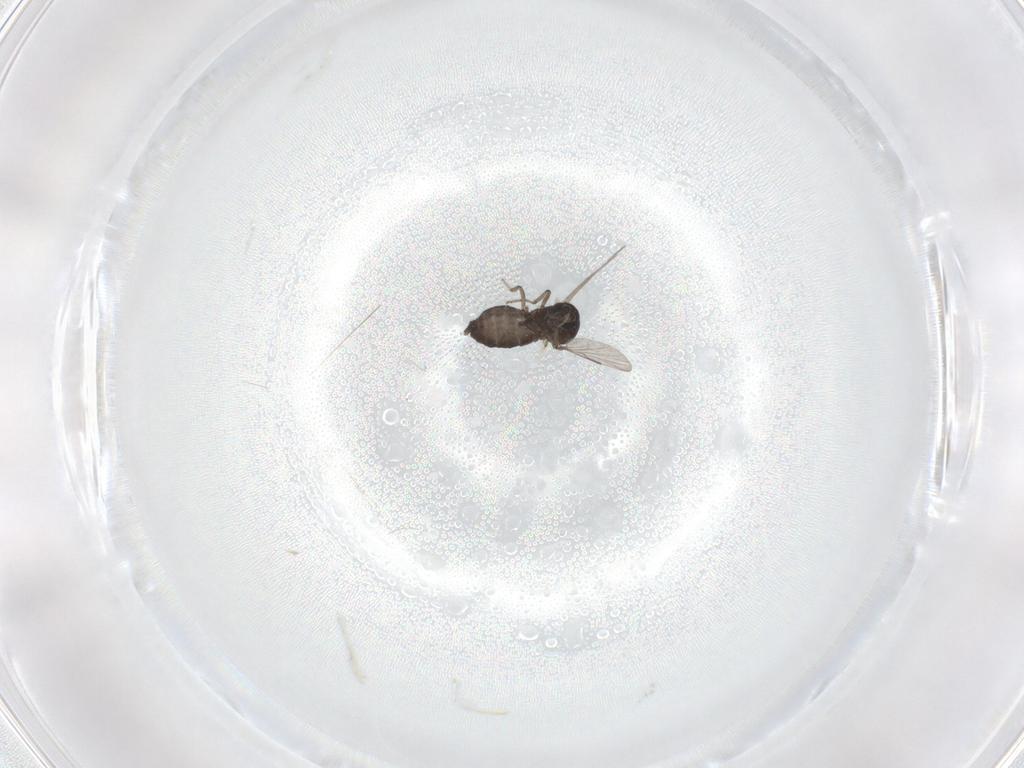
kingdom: Animalia
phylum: Arthropoda
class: Insecta
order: Diptera
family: Ceratopogonidae
